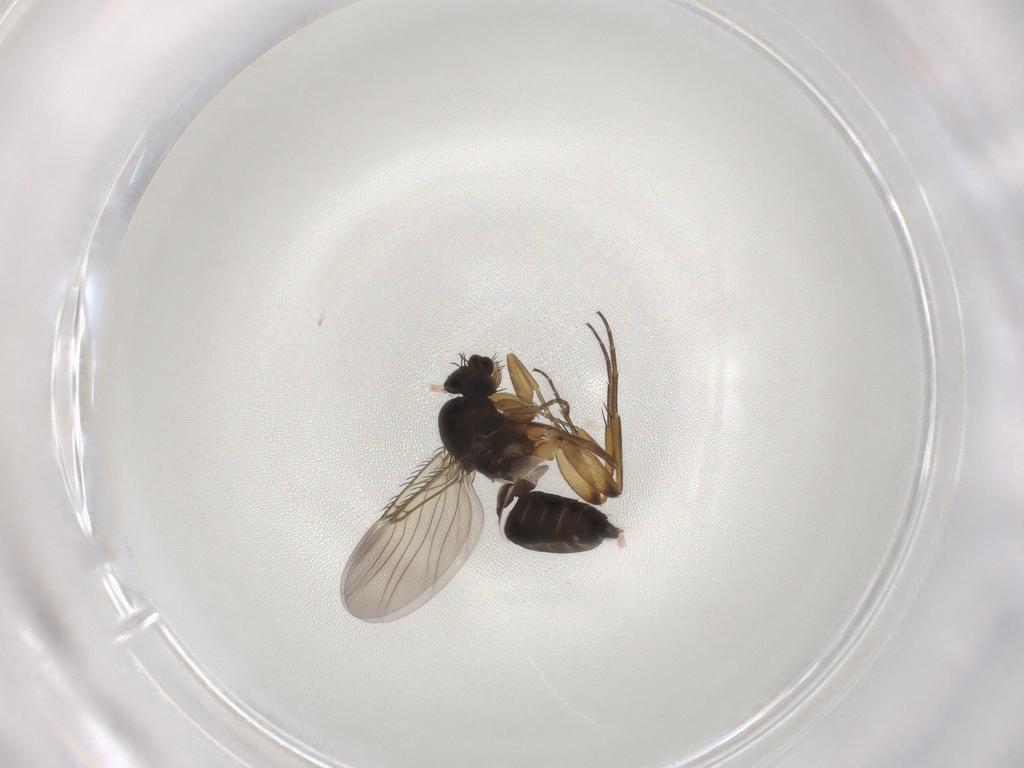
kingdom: Animalia
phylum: Arthropoda
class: Insecta
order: Diptera
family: Phoridae
